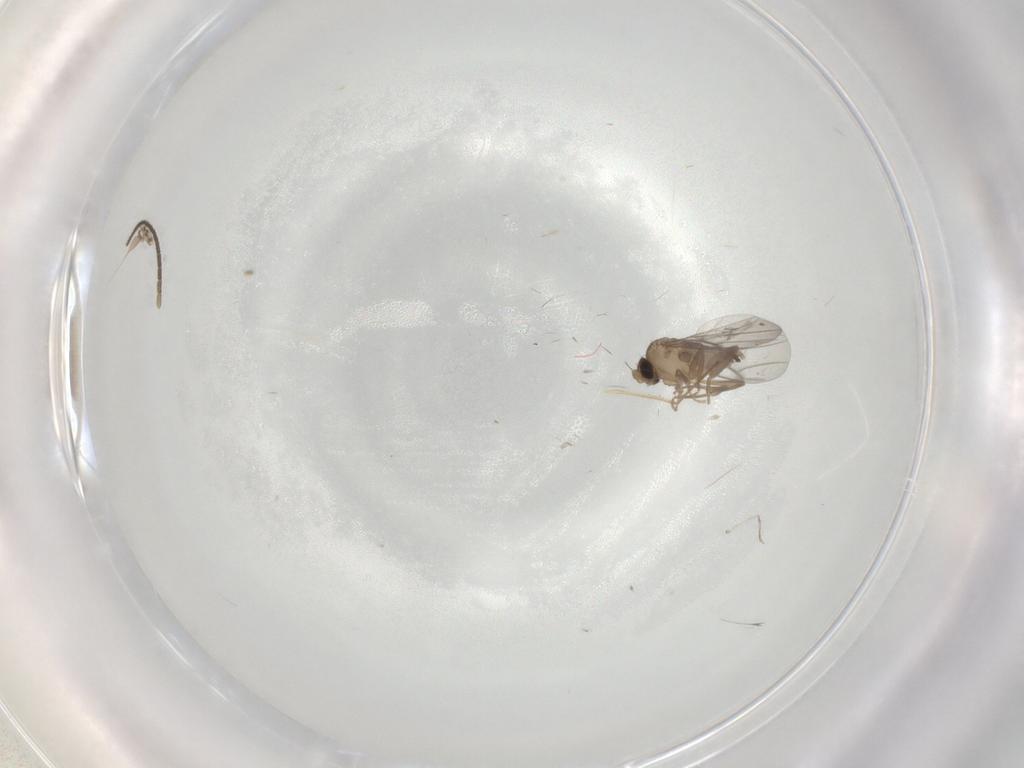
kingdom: Animalia
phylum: Arthropoda
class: Insecta
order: Diptera
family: Sciaridae
